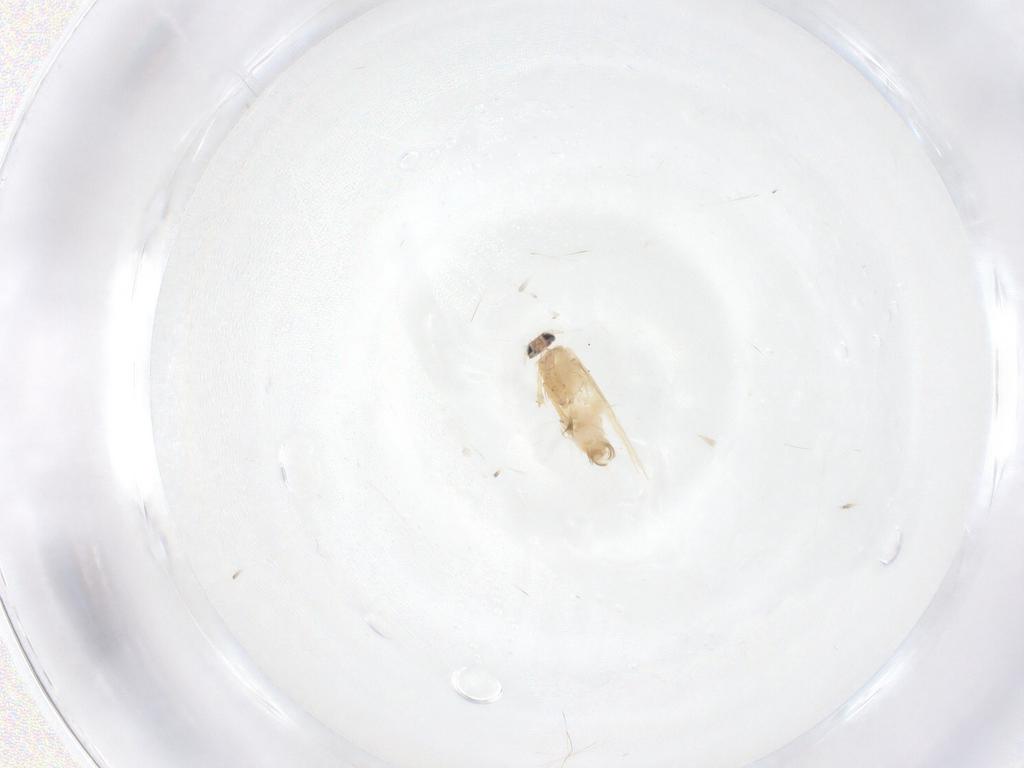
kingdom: Animalia
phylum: Arthropoda
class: Insecta
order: Lepidoptera
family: Nepticulidae
